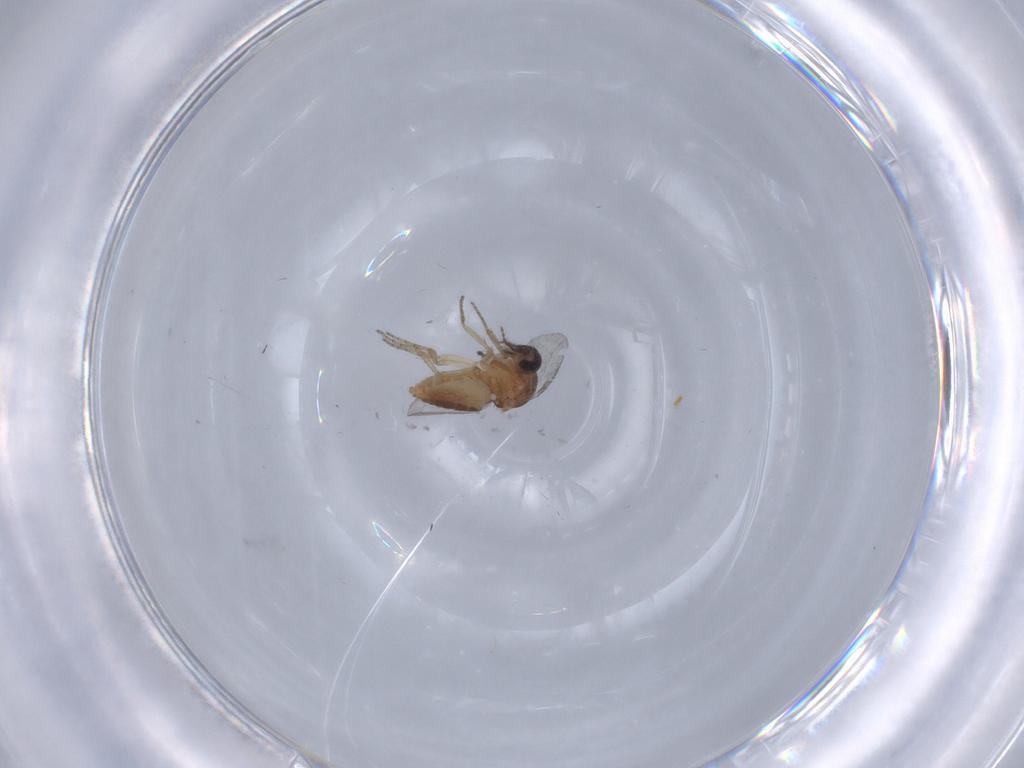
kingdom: Animalia
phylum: Arthropoda
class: Insecta
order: Diptera
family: Ceratopogonidae
